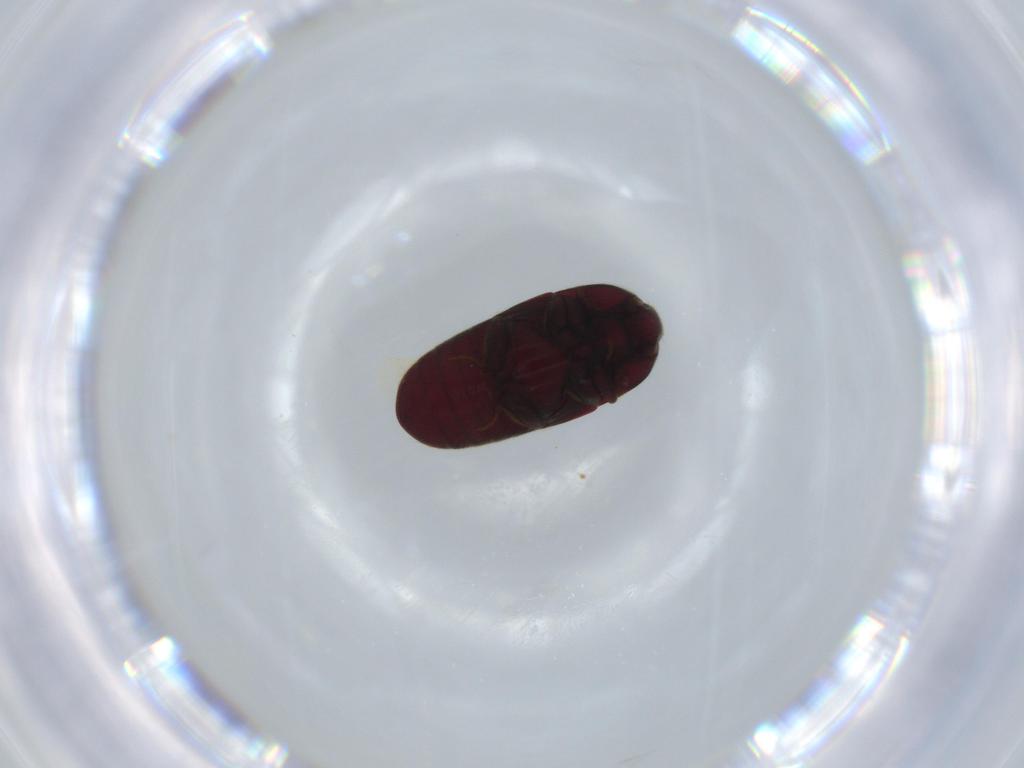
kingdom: Animalia
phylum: Arthropoda
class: Insecta
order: Coleoptera
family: Throscidae
